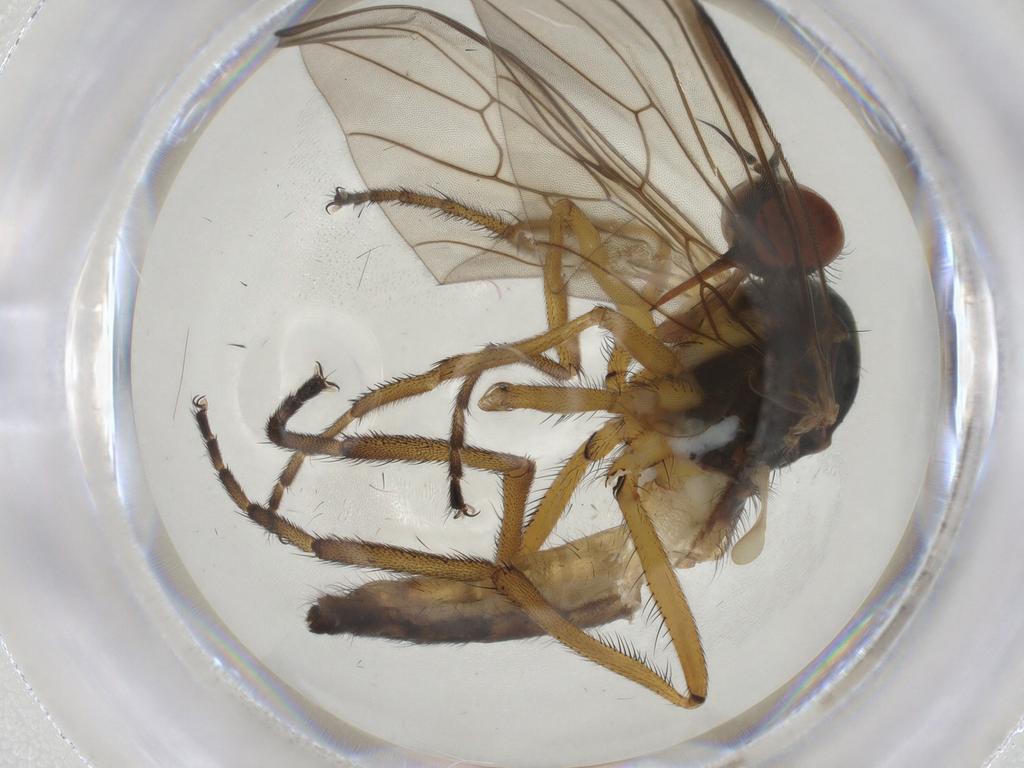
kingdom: Animalia
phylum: Arthropoda
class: Insecta
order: Diptera
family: Empididae
